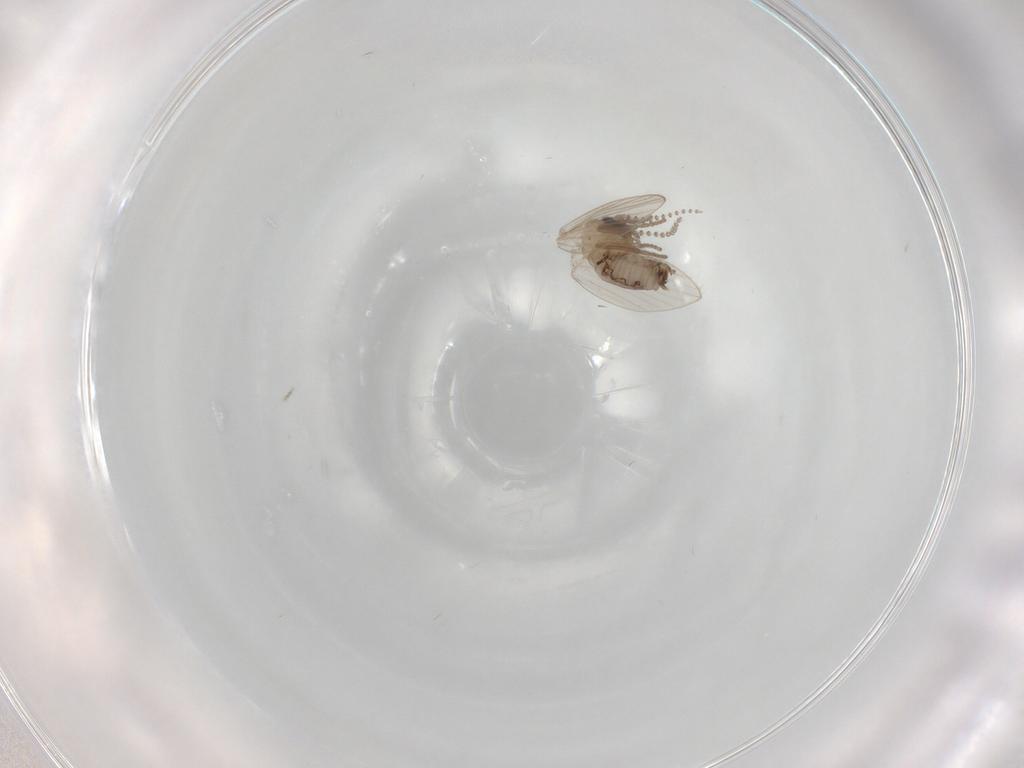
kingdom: Animalia
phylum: Arthropoda
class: Insecta
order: Diptera
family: Psychodidae
